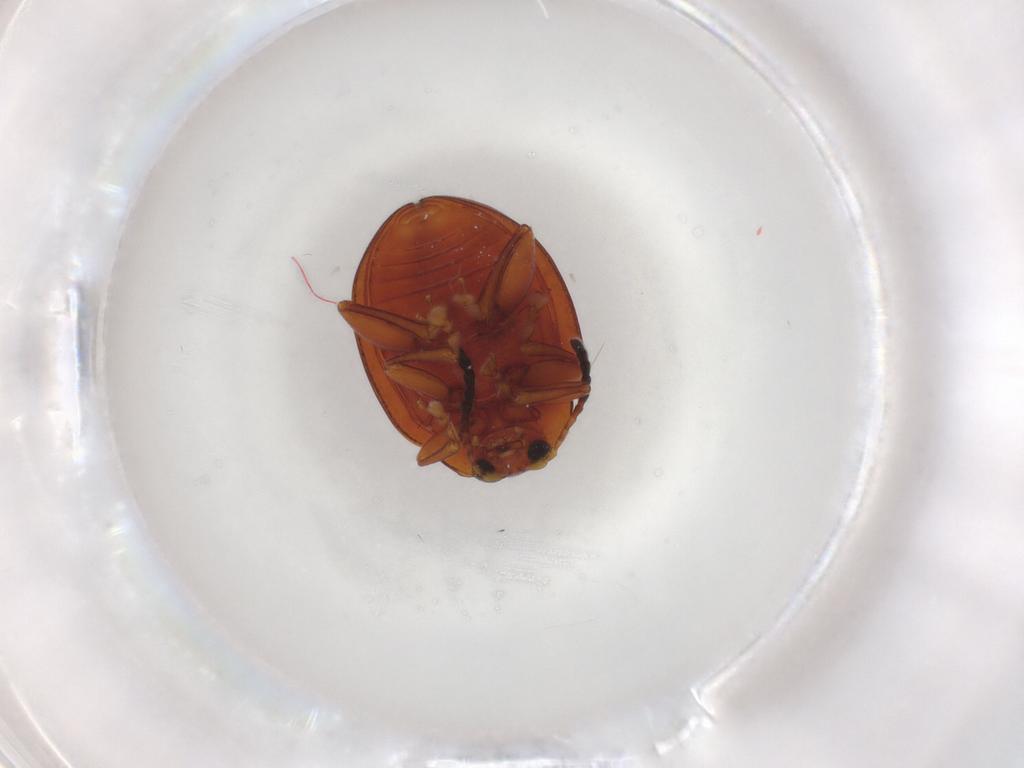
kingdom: Animalia
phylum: Arthropoda
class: Insecta
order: Coleoptera
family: Chrysomelidae
